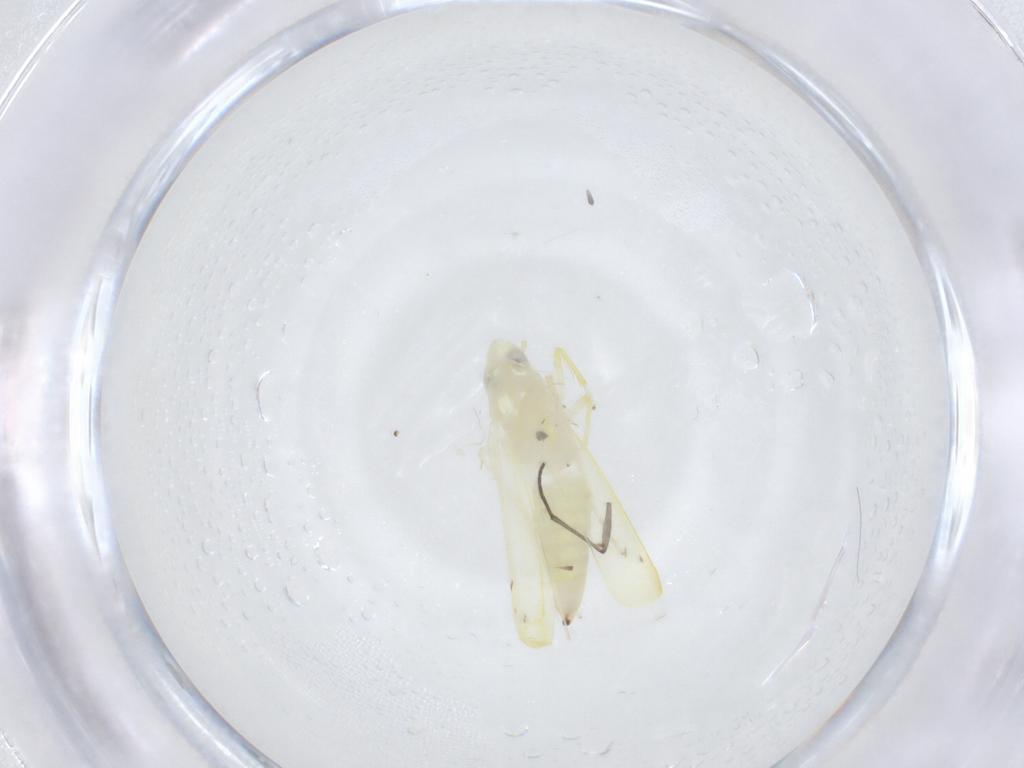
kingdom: Animalia
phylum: Arthropoda
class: Insecta
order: Hemiptera
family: Cicadellidae
